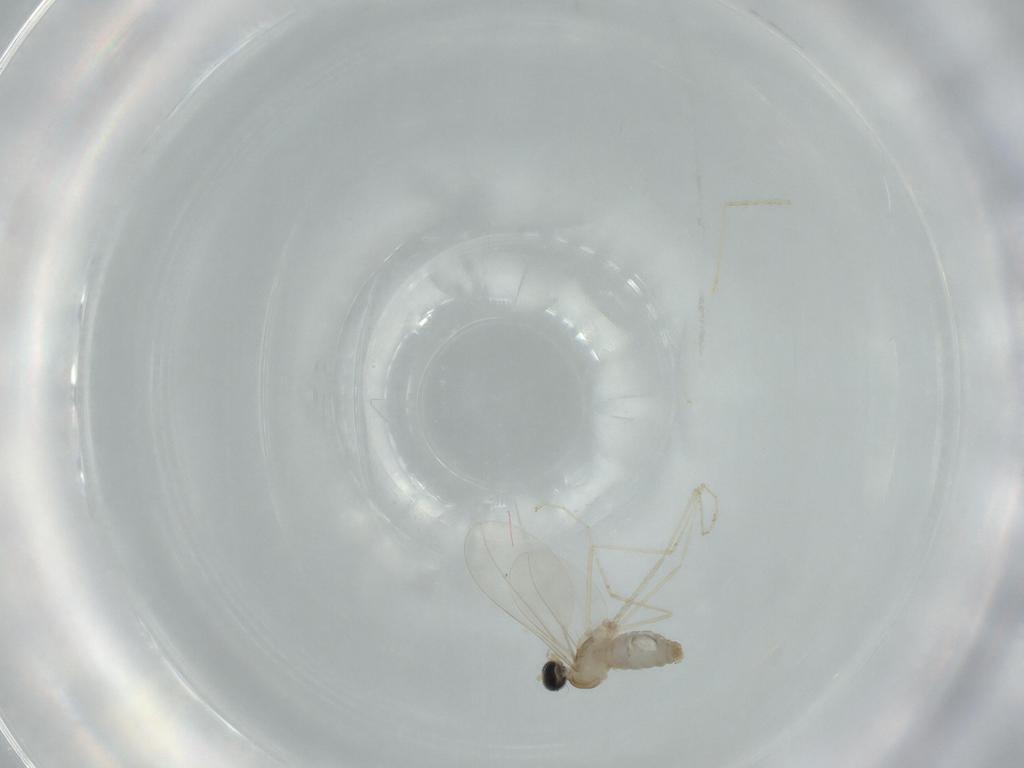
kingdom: Animalia
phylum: Arthropoda
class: Insecta
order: Diptera
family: Cecidomyiidae
